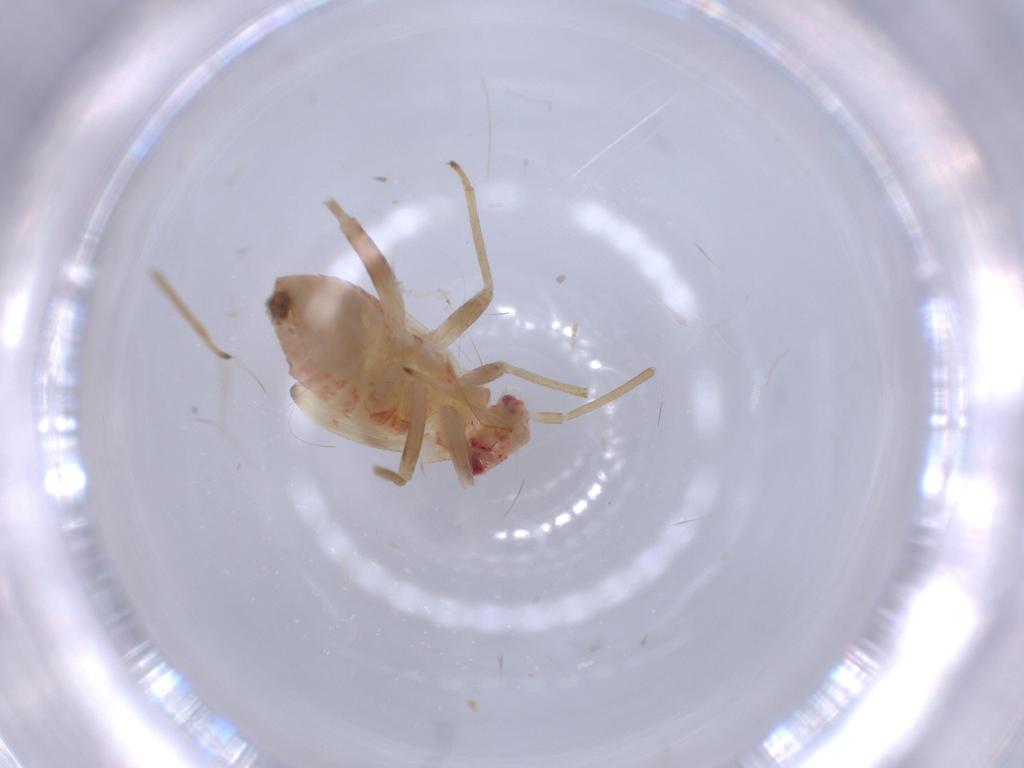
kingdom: Animalia
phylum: Arthropoda
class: Insecta
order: Hemiptera
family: Miridae
